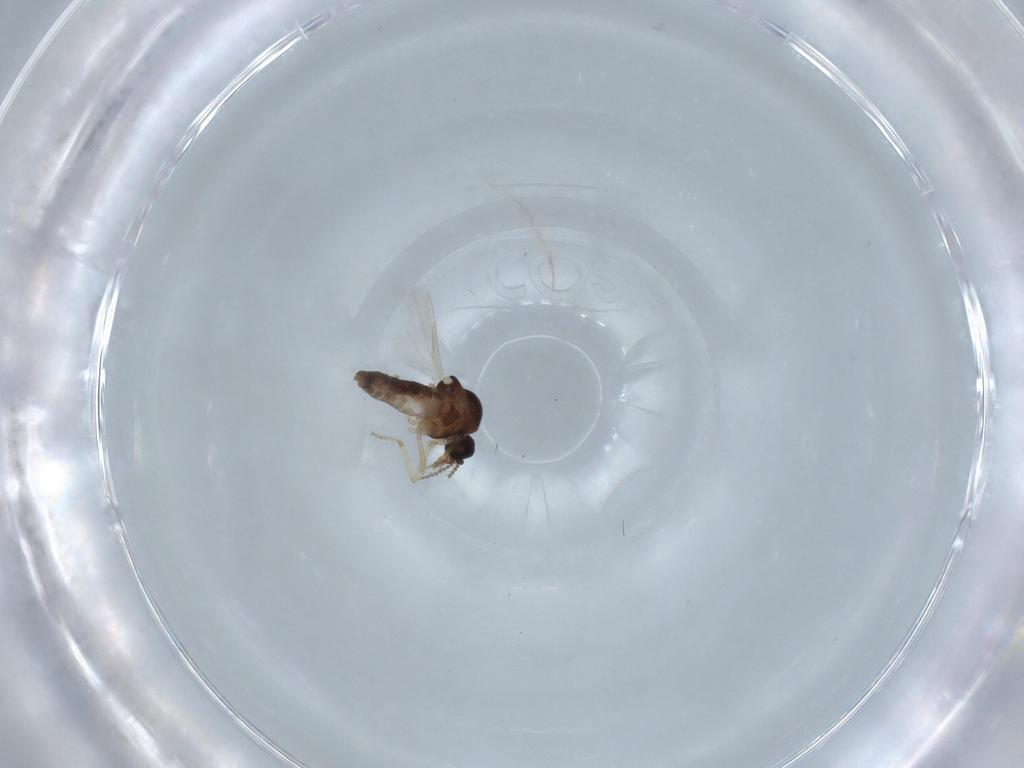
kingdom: Animalia
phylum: Arthropoda
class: Insecta
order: Diptera
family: Ceratopogonidae
